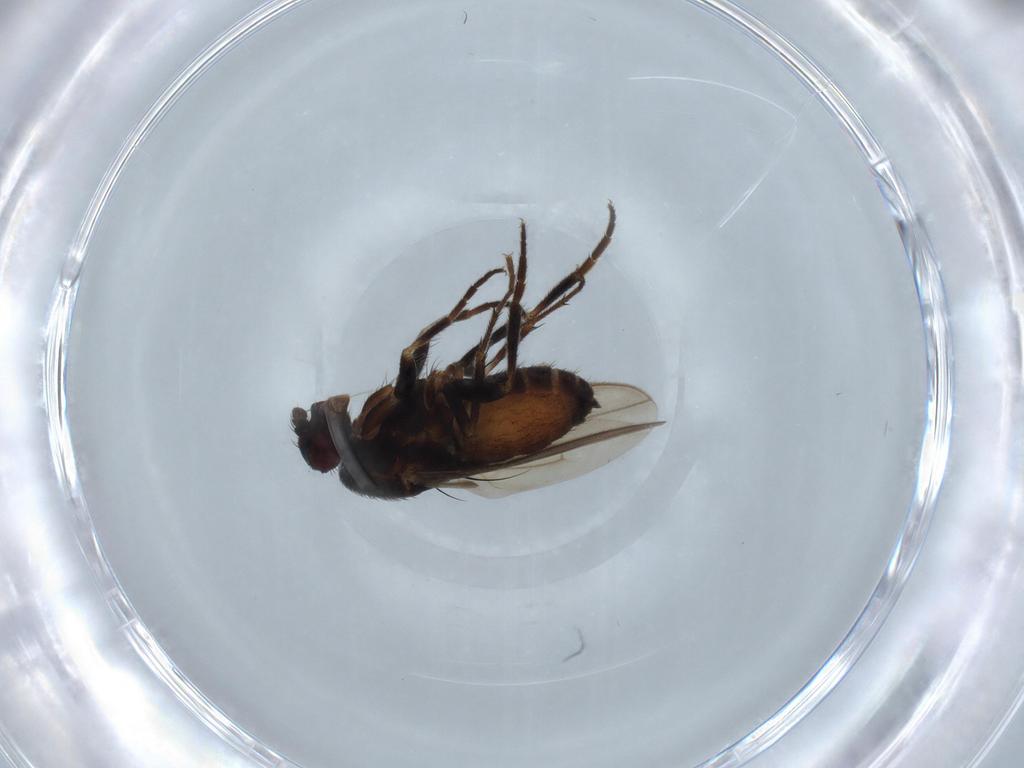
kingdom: Animalia
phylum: Arthropoda
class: Insecta
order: Diptera
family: Sphaeroceridae
